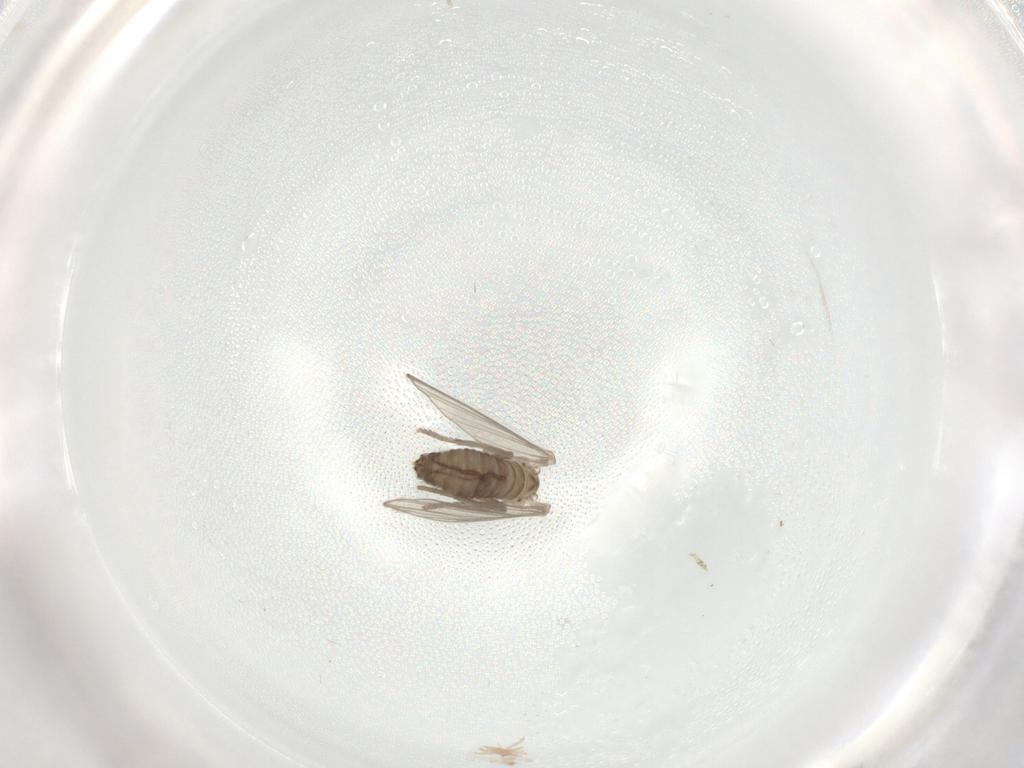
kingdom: Animalia
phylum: Arthropoda
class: Insecta
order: Diptera
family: Psychodidae
